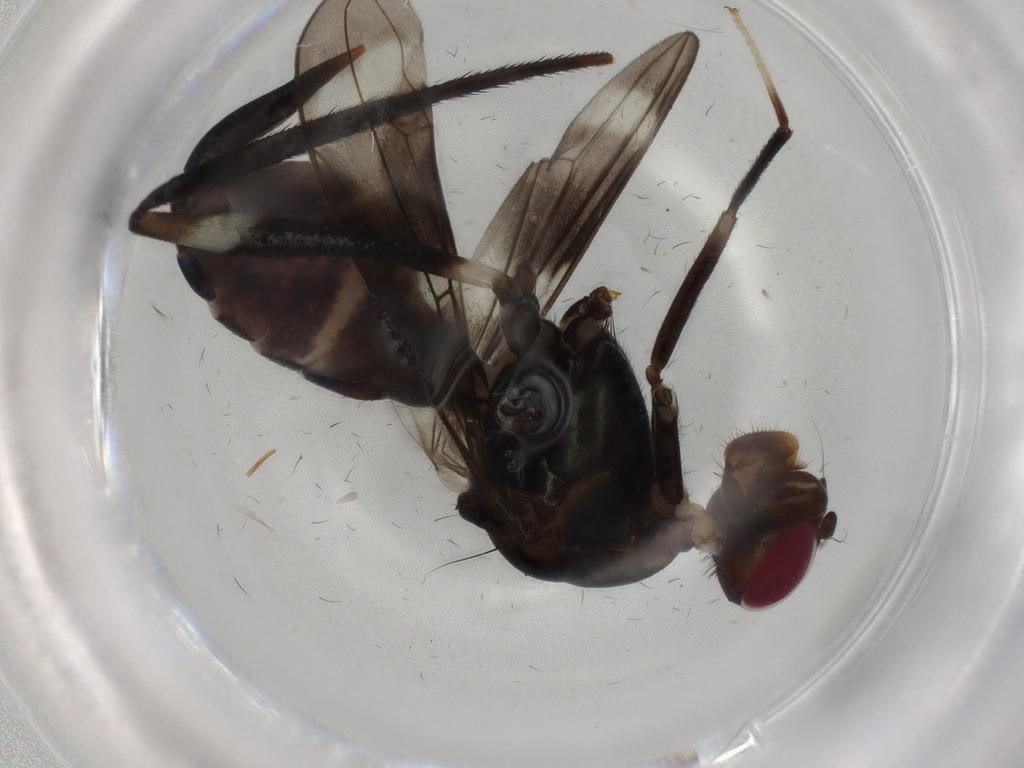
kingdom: Animalia
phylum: Arthropoda
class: Insecta
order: Diptera
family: Micropezidae
